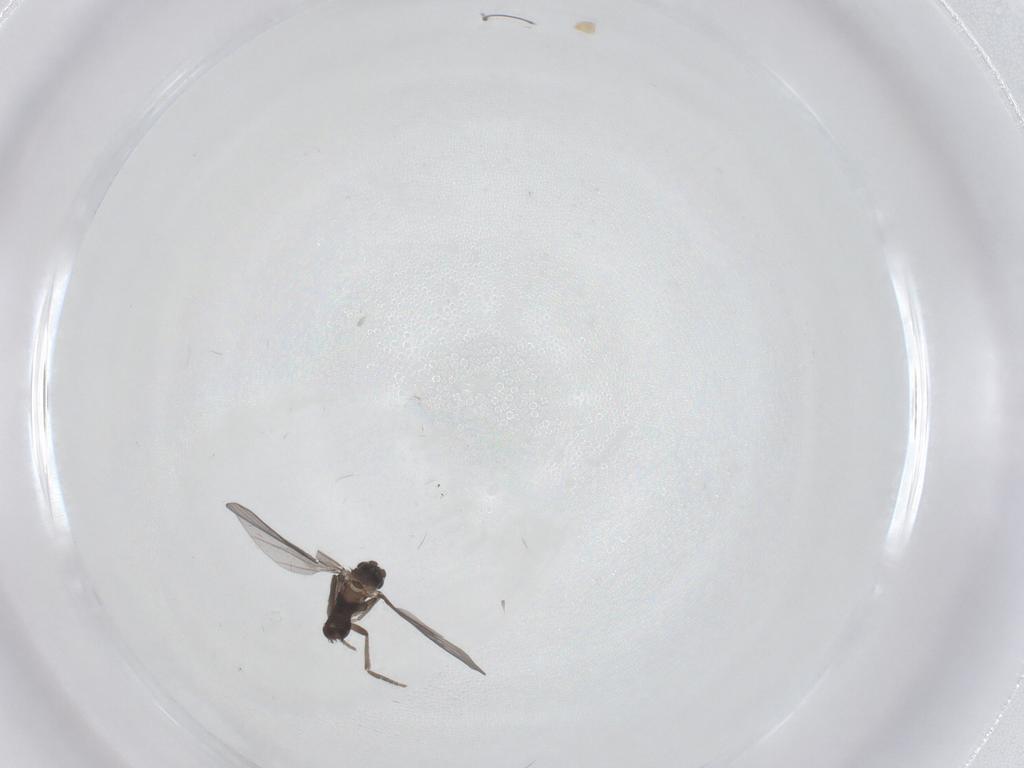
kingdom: Animalia
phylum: Arthropoda
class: Insecta
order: Diptera
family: Phoridae
